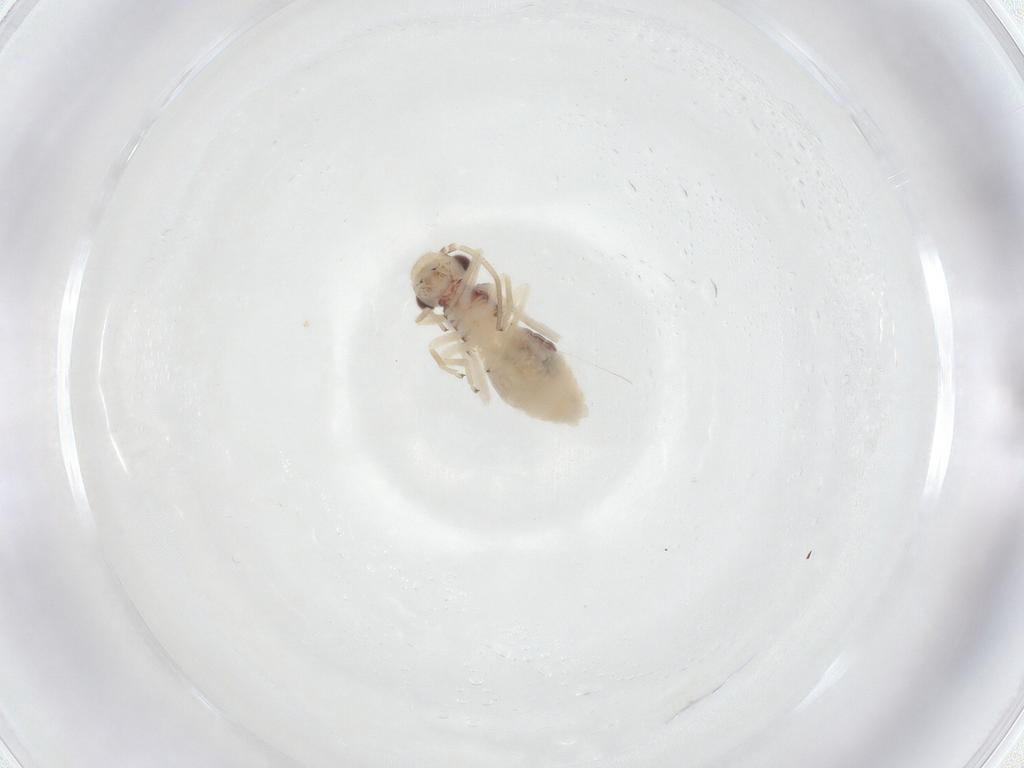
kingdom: Animalia
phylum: Arthropoda
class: Insecta
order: Psocodea
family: Caeciliusidae
